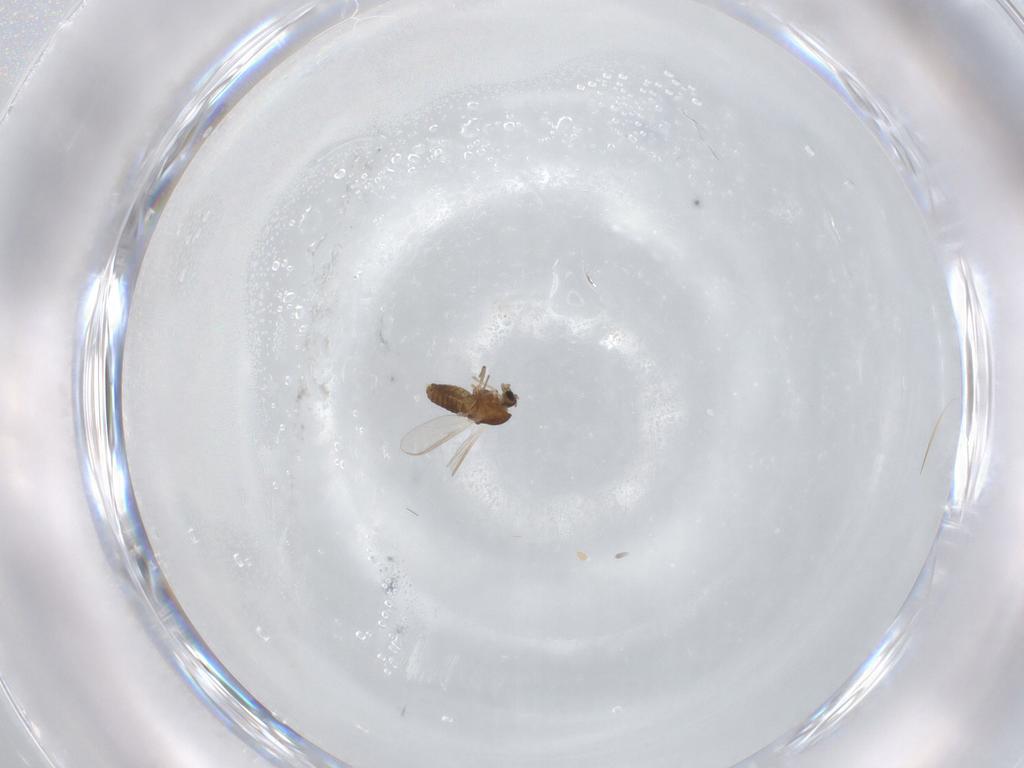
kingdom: Animalia
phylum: Arthropoda
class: Insecta
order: Diptera
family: Chironomidae
